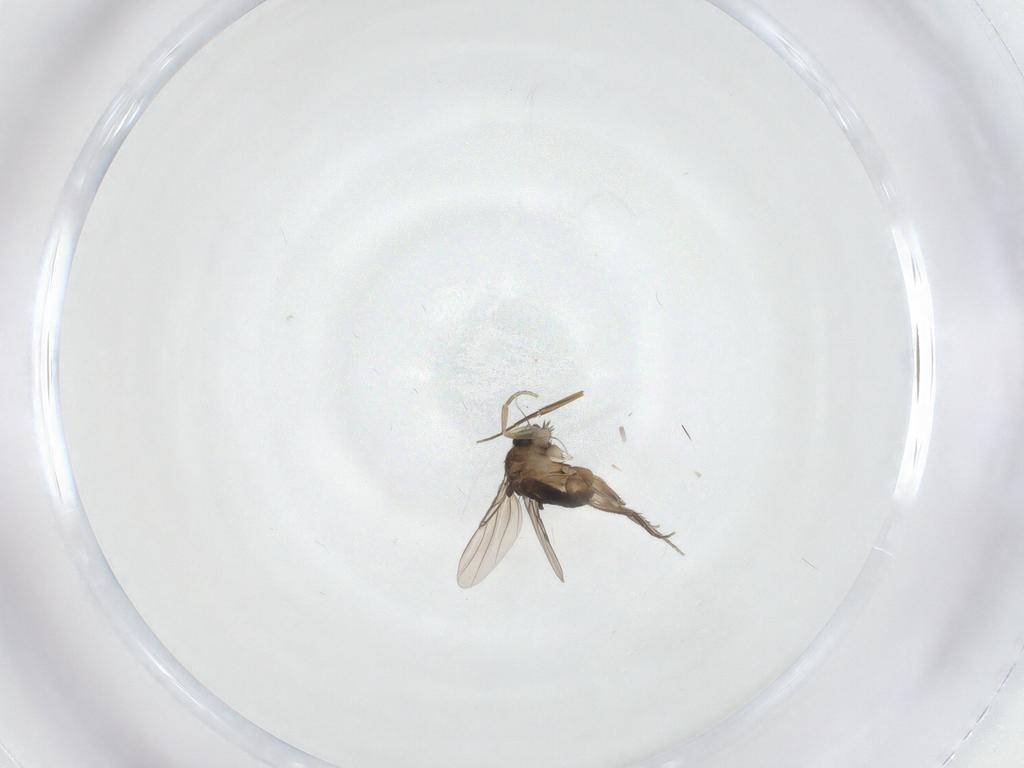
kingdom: Animalia
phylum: Arthropoda
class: Insecta
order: Diptera
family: Phoridae
